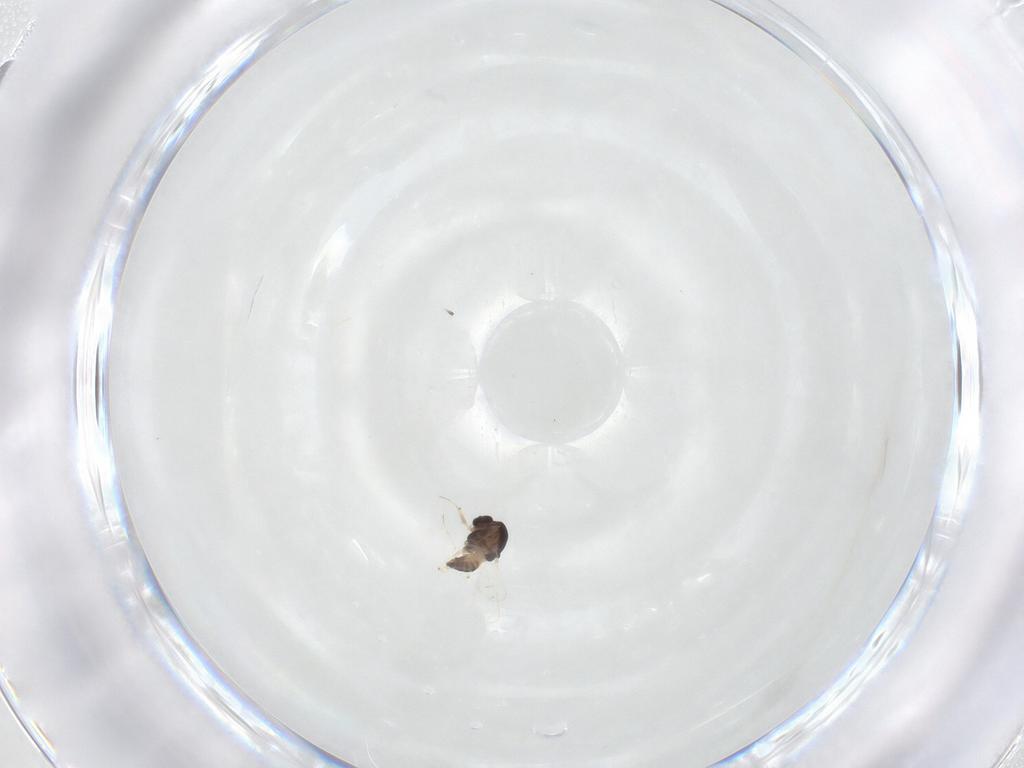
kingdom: Animalia
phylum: Arthropoda
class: Insecta
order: Diptera
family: Chironomidae
